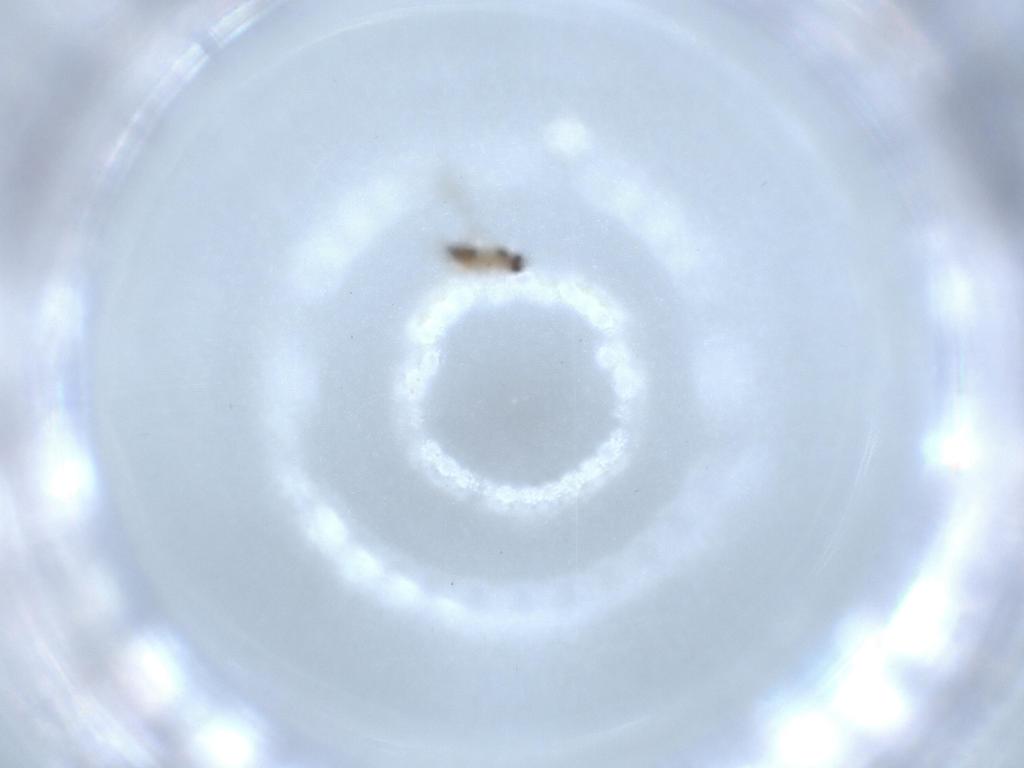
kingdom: Animalia
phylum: Arthropoda
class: Insecta
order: Hymenoptera
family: Mymaridae
